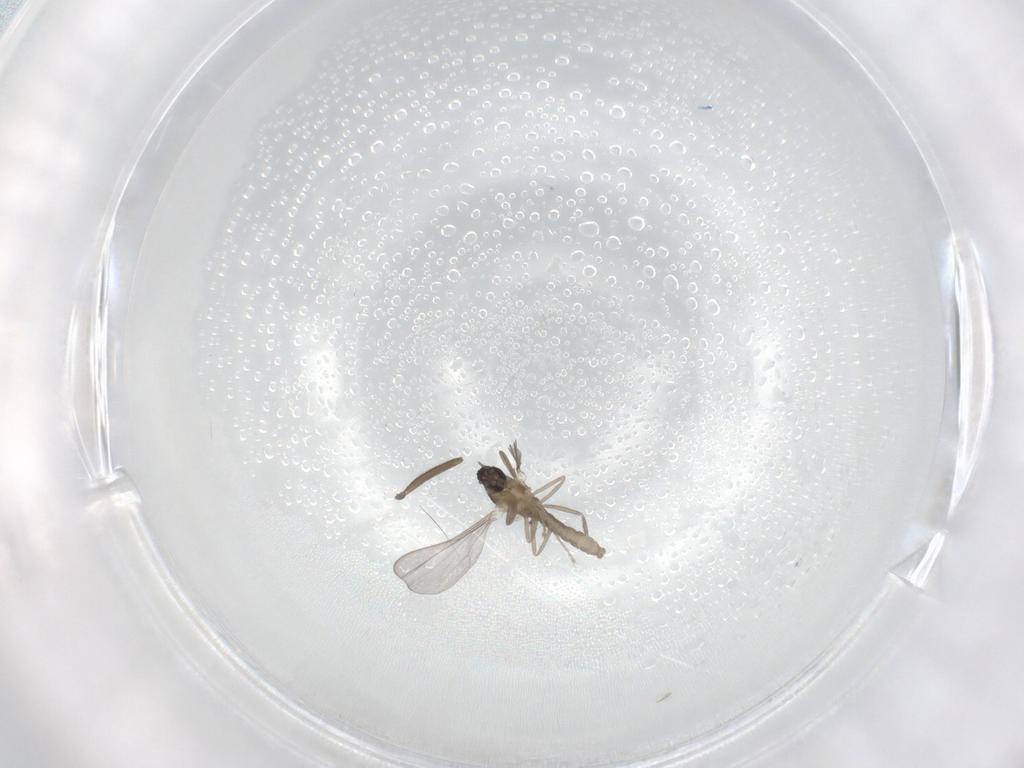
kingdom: Animalia
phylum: Arthropoda
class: Insecta
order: Diptera
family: Cecidomyiidae
